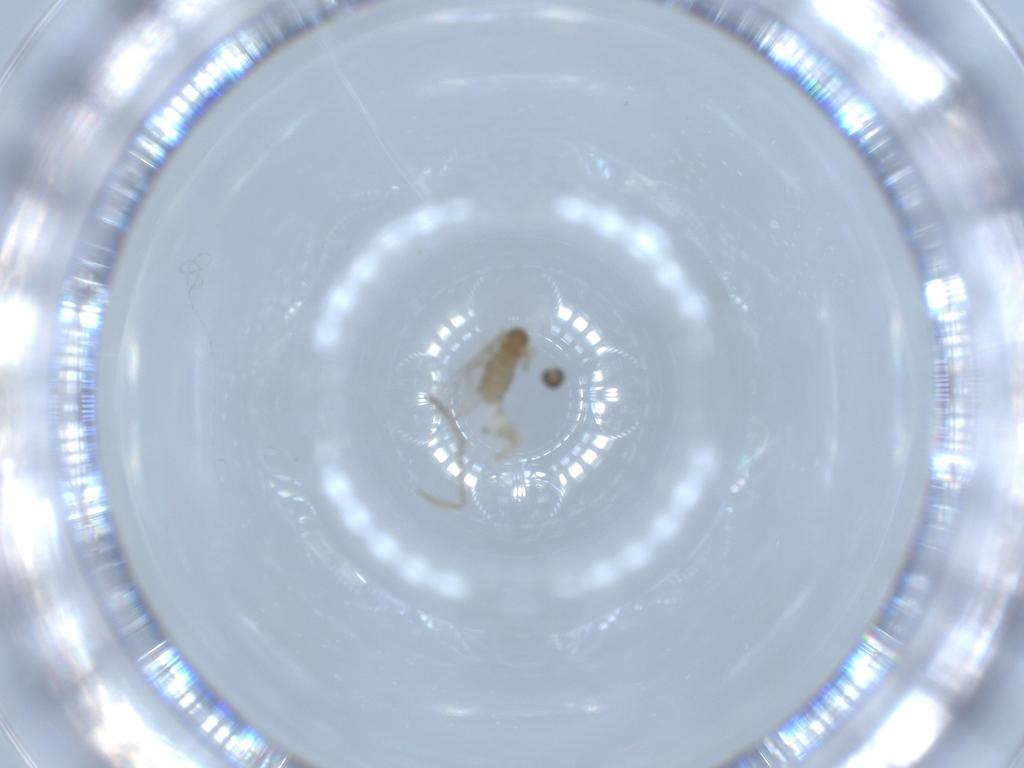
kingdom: Animalia
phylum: Arthropoda
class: Insecta
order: Diptera
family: Cecidomyiidae
